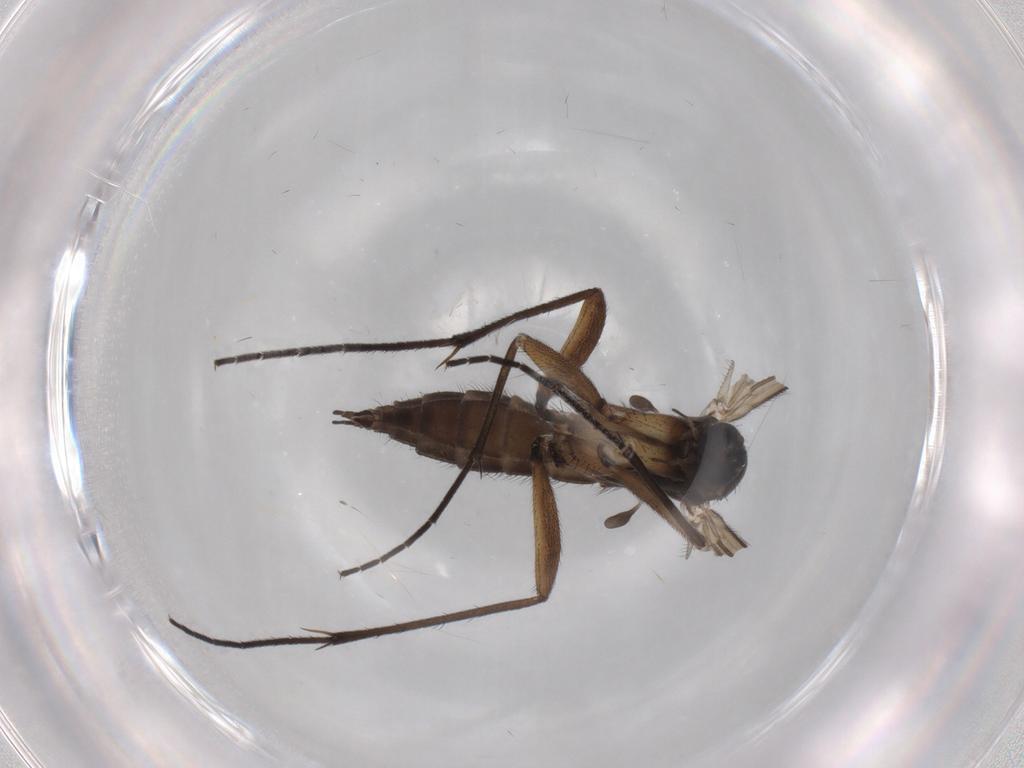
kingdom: Animalia
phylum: Arthropoda
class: Insecta
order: Diptera
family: Sciaridae
